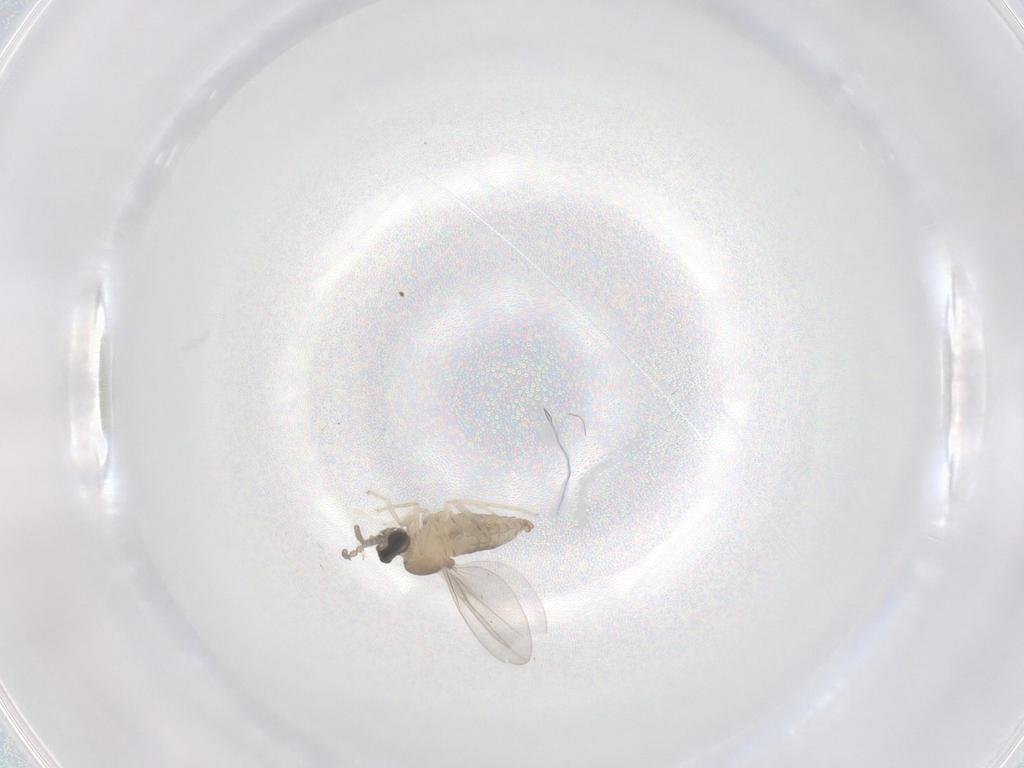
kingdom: Animalia
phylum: Arthropoda
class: Insecta
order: Diptera
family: Cecidomyiidae
